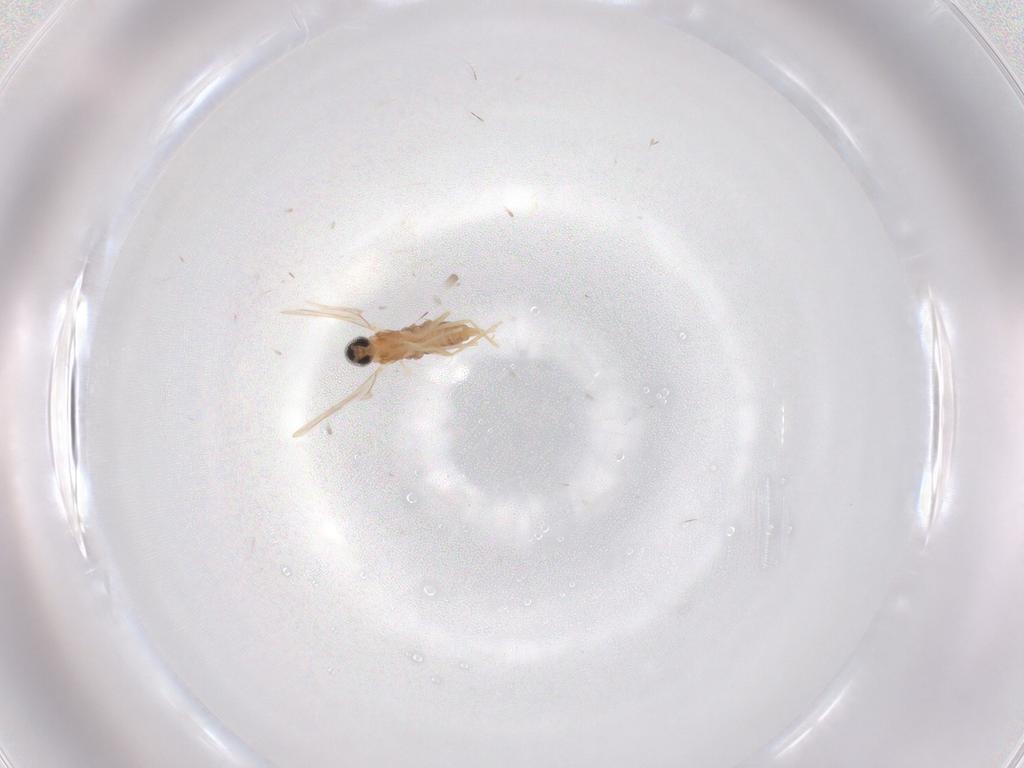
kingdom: Animalia
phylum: Arthropoda
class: Insecta
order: Diptera
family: Cecidomyiidae
